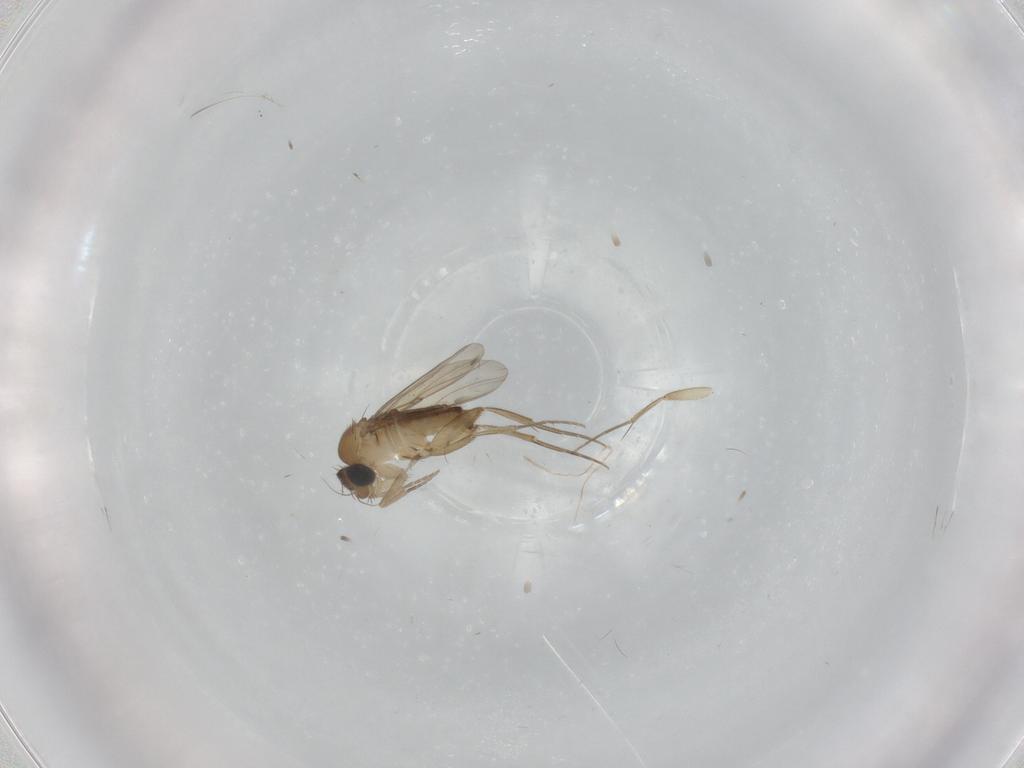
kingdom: Animalia
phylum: Arthropoda
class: Insecta
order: Diptera
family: Phoridae
